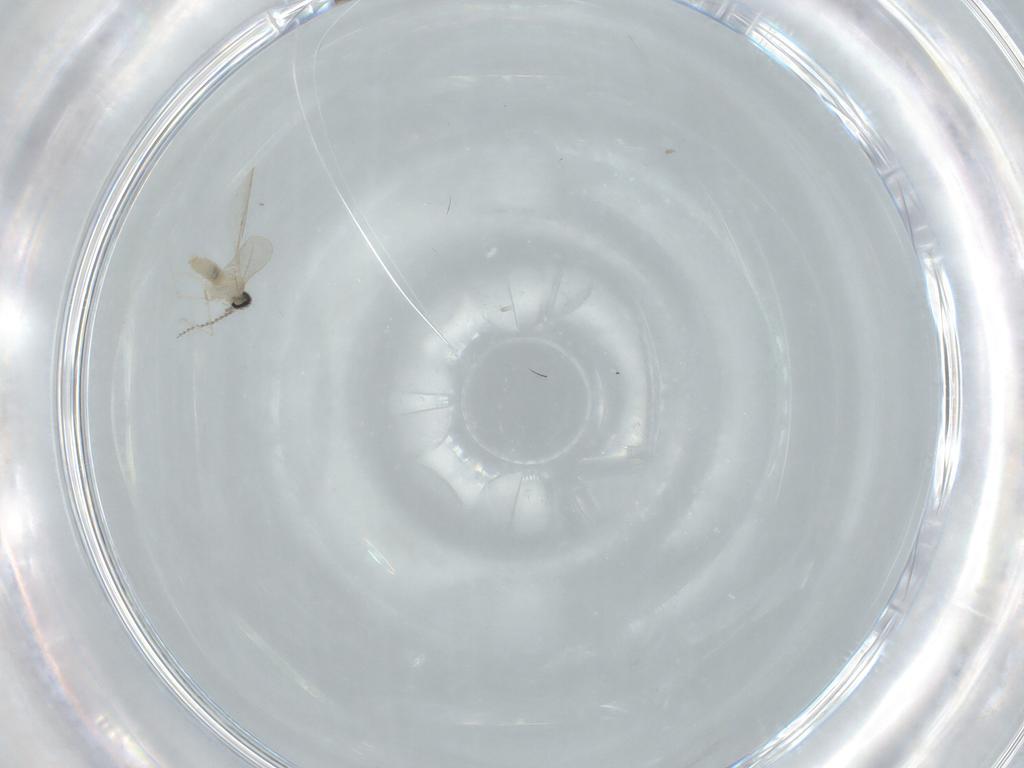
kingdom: Animalia
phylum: Arthropoda
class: Insecta
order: Diptera
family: Cecidomyiidae
